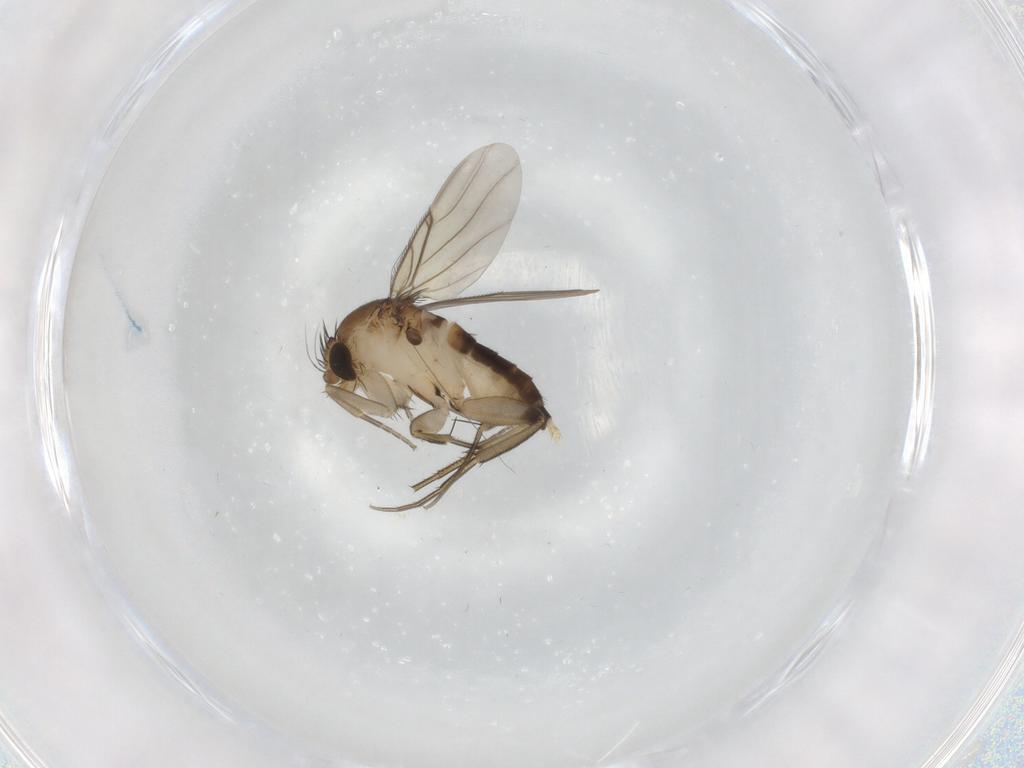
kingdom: Animalia
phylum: Arthropoda
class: Insecta
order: Diptera
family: Phoridae
